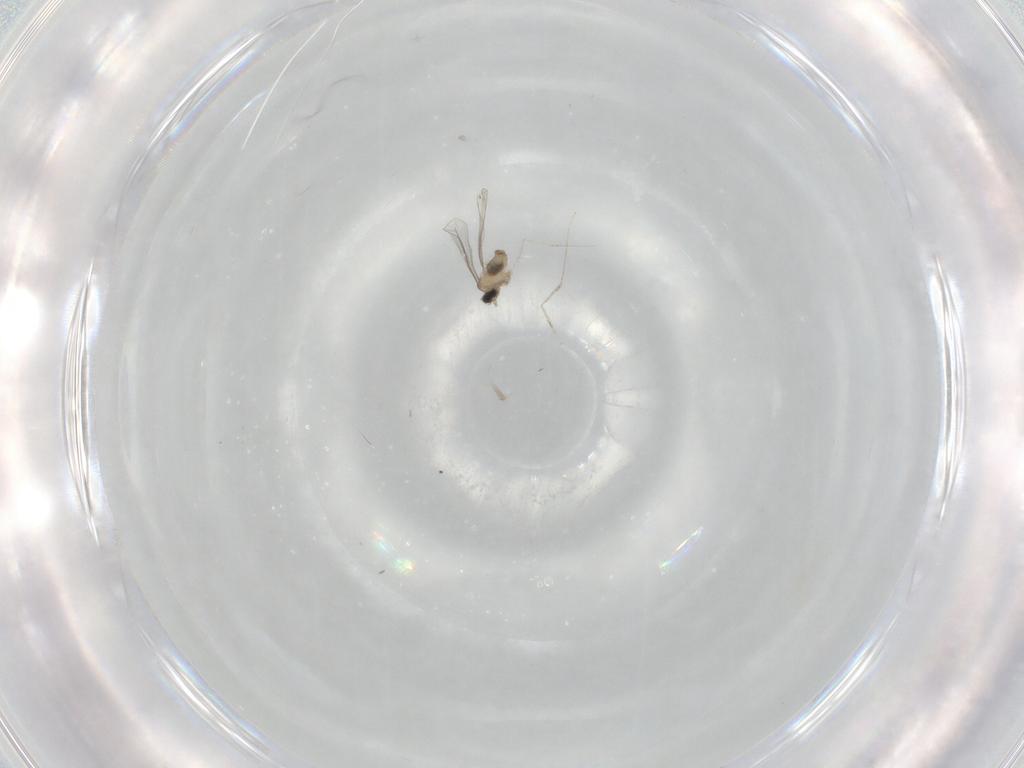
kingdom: Animalia
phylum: Arthropoda
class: Insecta
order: Diptera
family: Cecidomyiidae
